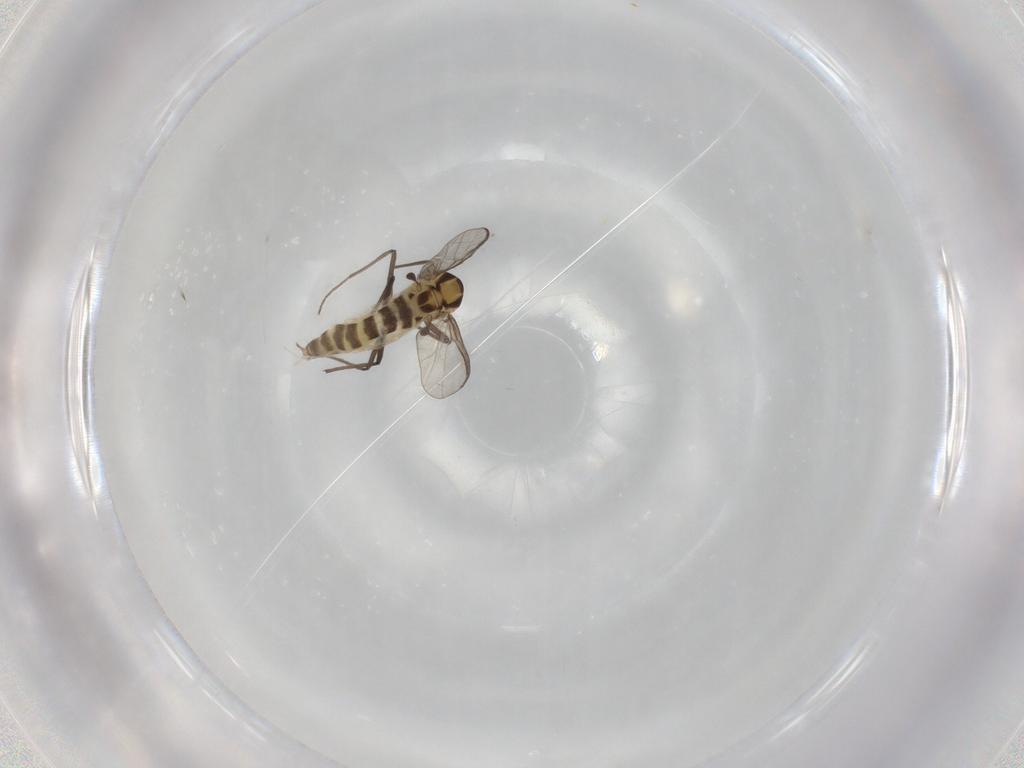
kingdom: Animalia
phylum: Arthropoda
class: Insecta
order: Diptera
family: Chironomidae
